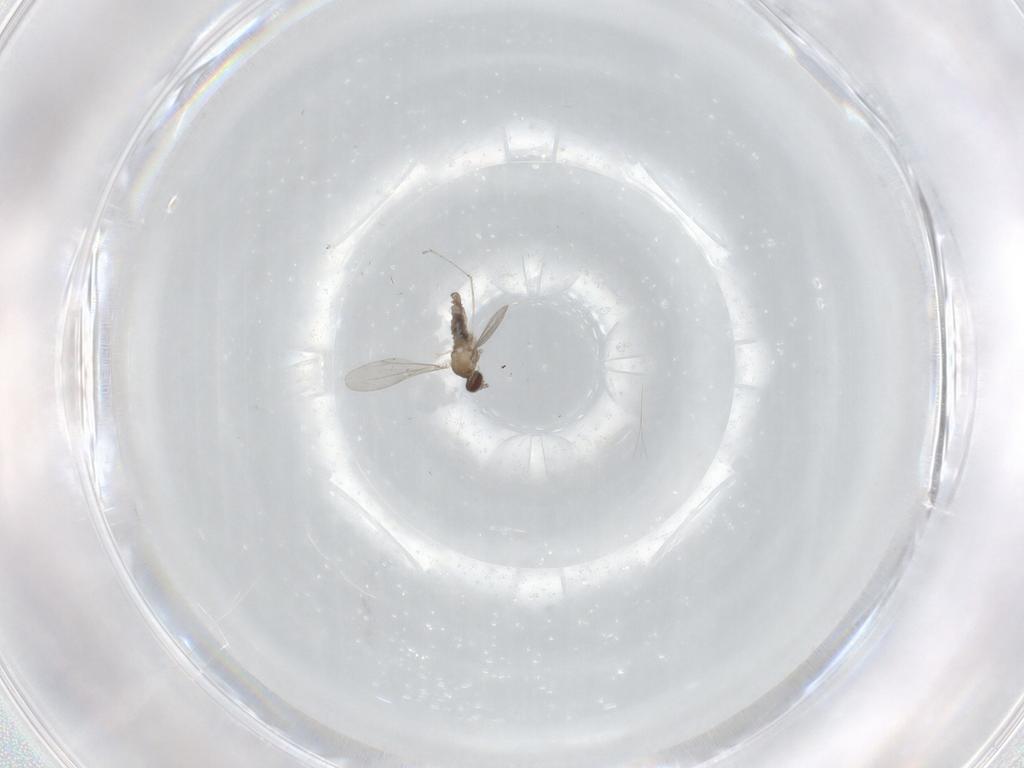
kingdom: Animalia
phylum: Arthropoda
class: Insecta
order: Diptera
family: Cecidomyiidae
